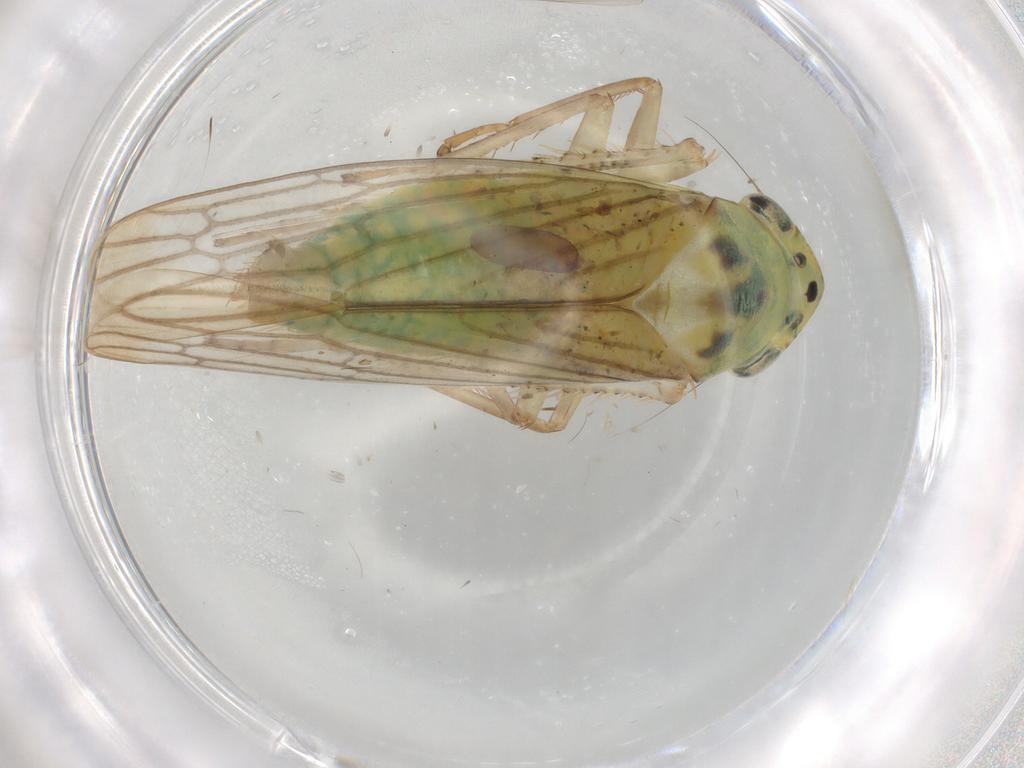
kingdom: Animalia
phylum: Arthropoda
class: Insecta
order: Hemiptera
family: Cicadellidae
